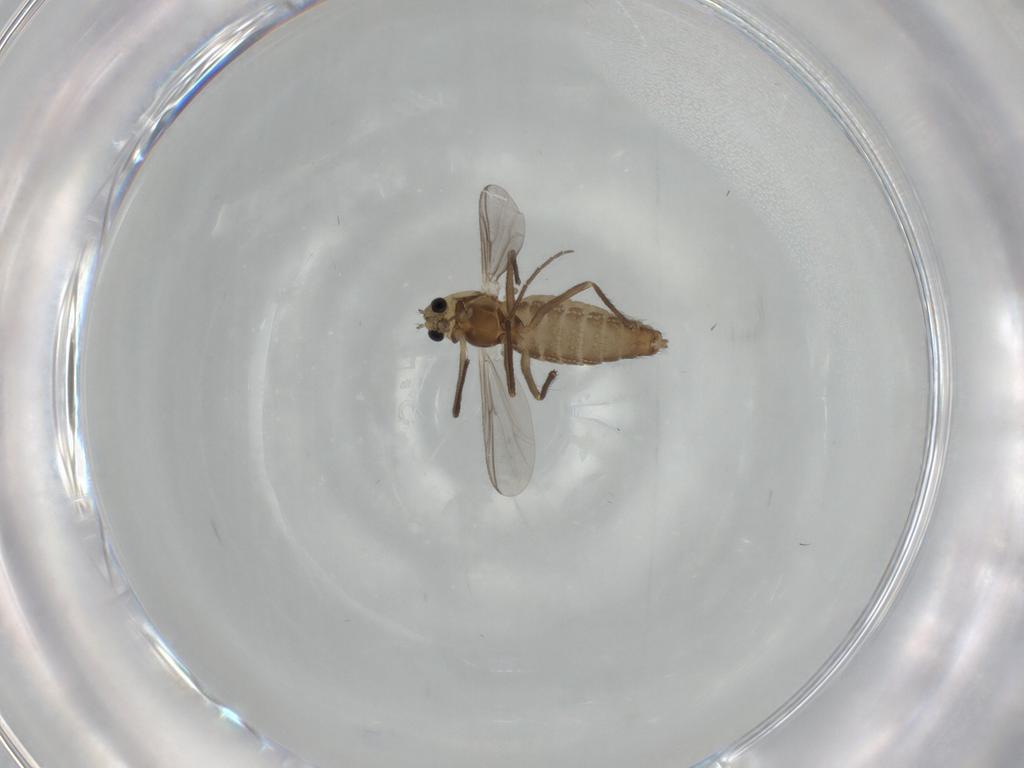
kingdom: Animalia
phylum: Arthropoda
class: Insecta
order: Diptera
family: Sciaridae
